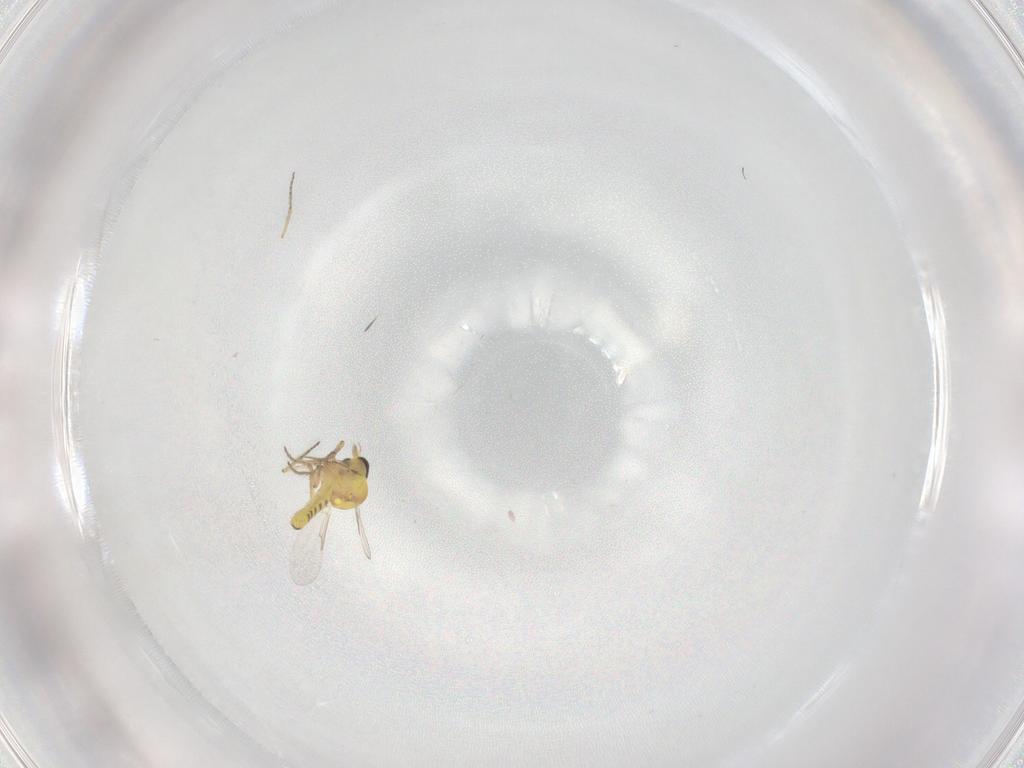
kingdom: Animalia
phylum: Arthropoda
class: Insecta
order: Diptera
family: Ceratopogonidae
